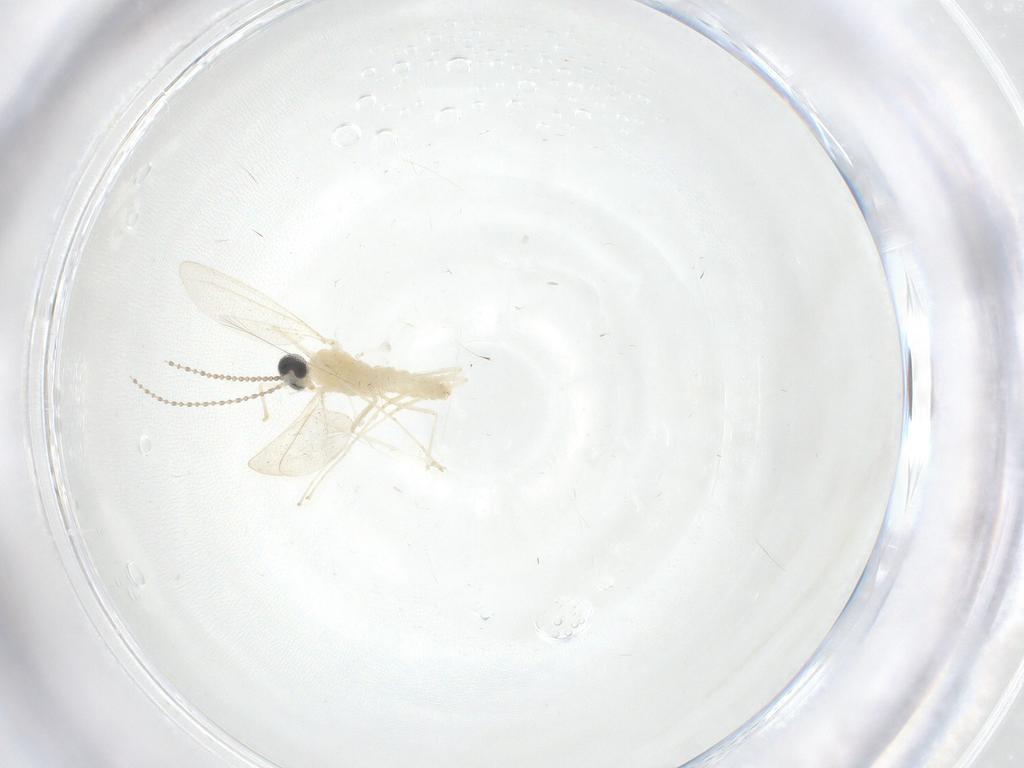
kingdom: Animalia
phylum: Arthropoda
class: Insecta
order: Diptera
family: Cecidomyiidae
